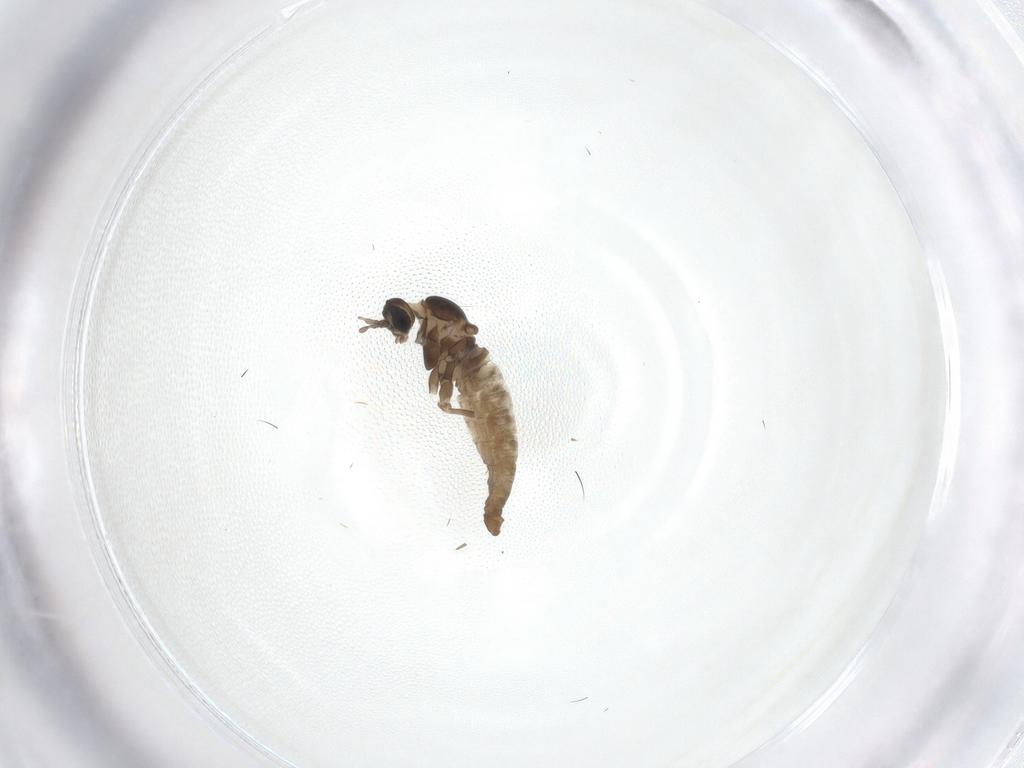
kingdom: Animalia
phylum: Arthropoda
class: Insecta
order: Diptera
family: Cecidomyiidae
